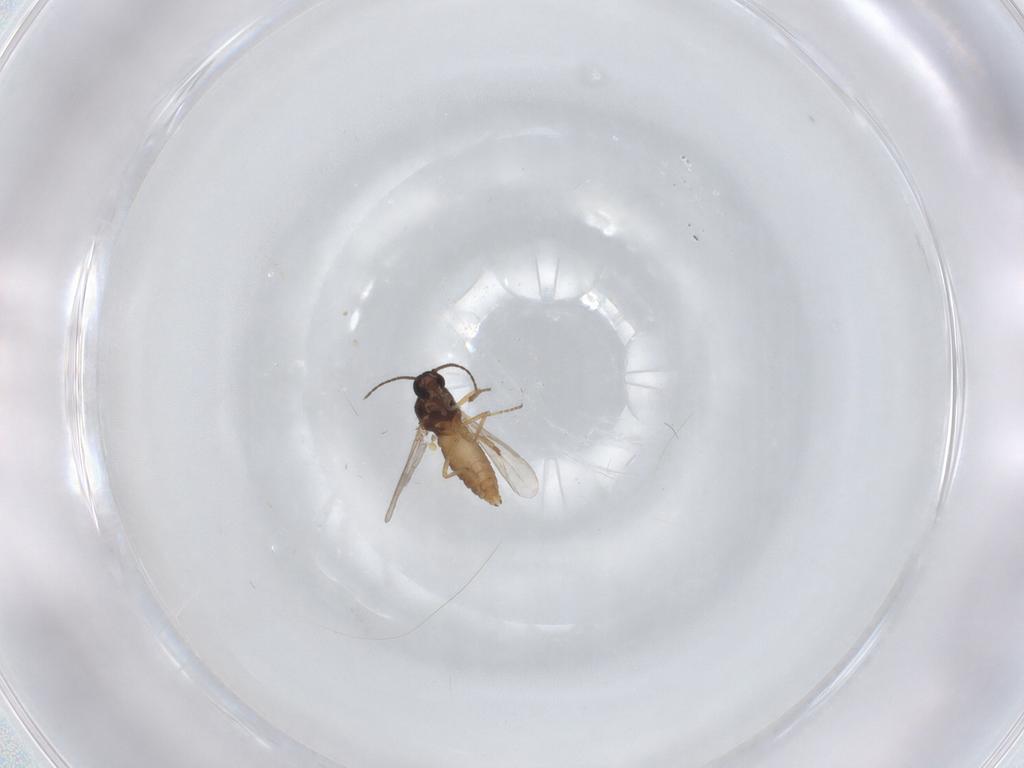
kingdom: Animalia
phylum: Arthropoda
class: Insecta
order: Diptera
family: Ceratopogonidae
